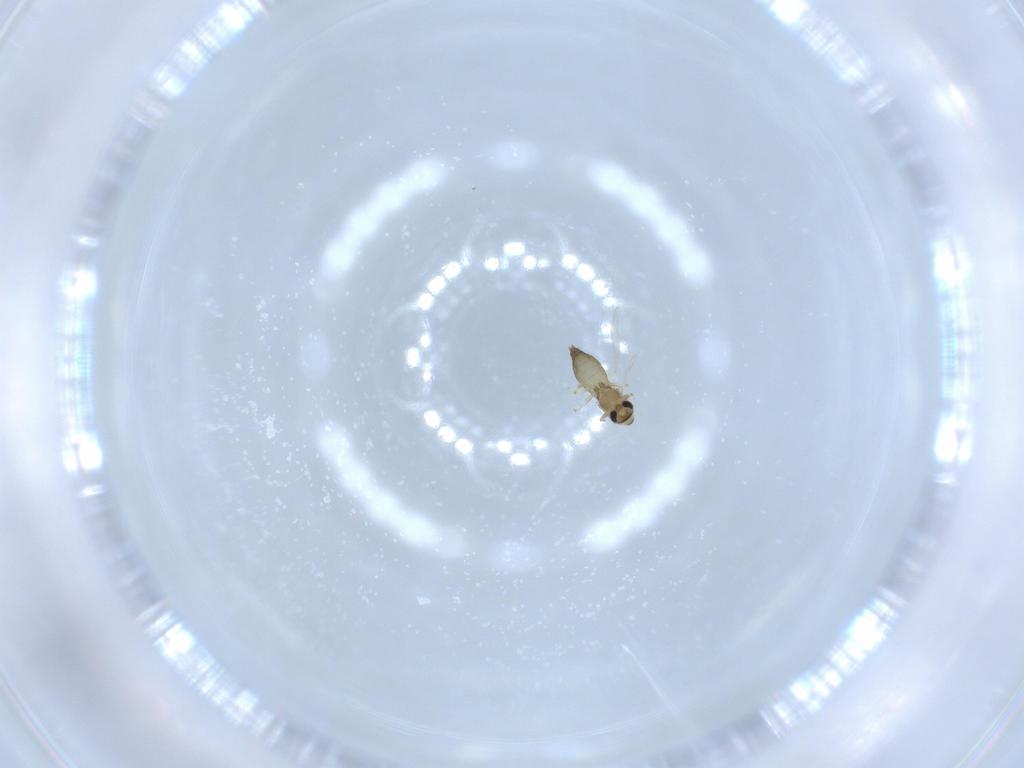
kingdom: Animalia
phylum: Arthropoda
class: Insecta
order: Diptera
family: Chironomidae
